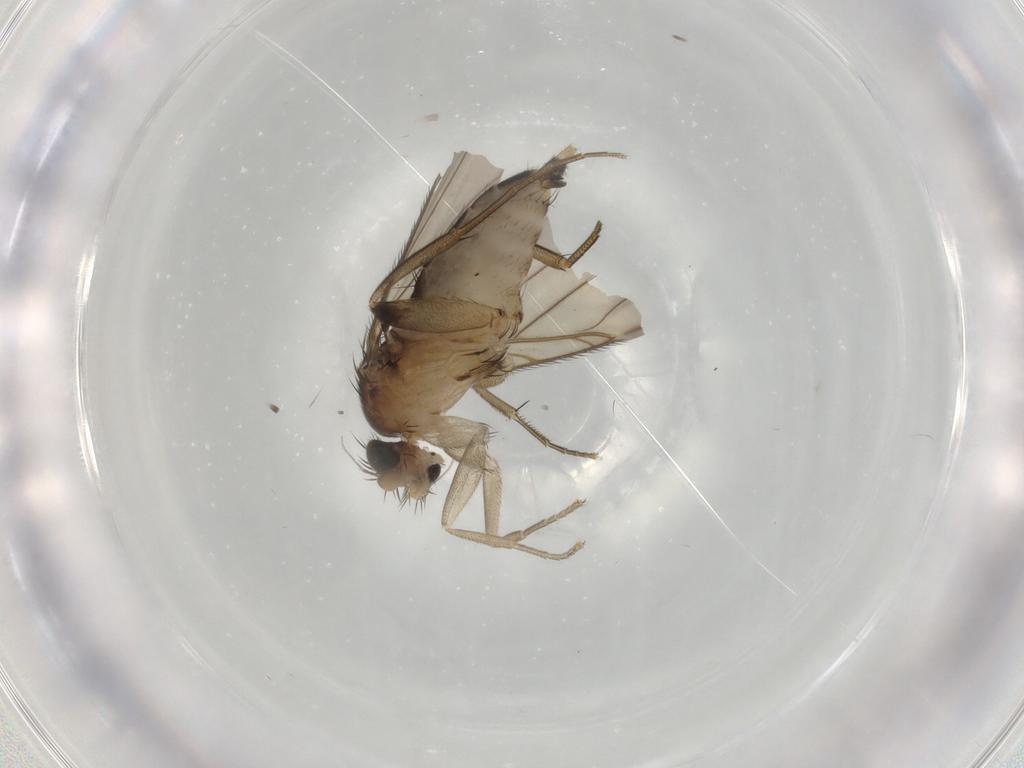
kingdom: Animalia
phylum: Arthropoda
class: Insecta
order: Diptera
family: Phoridae
